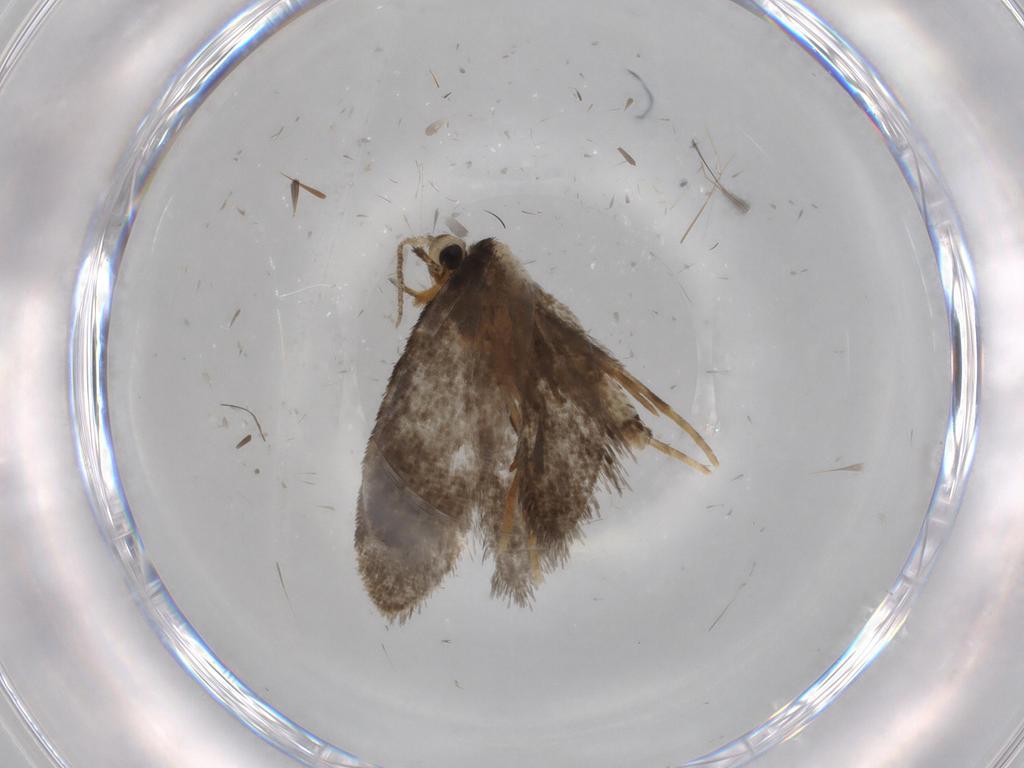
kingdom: Animalia
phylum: Arthropoda
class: Insecta
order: Lepidoptera
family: Psychidae
